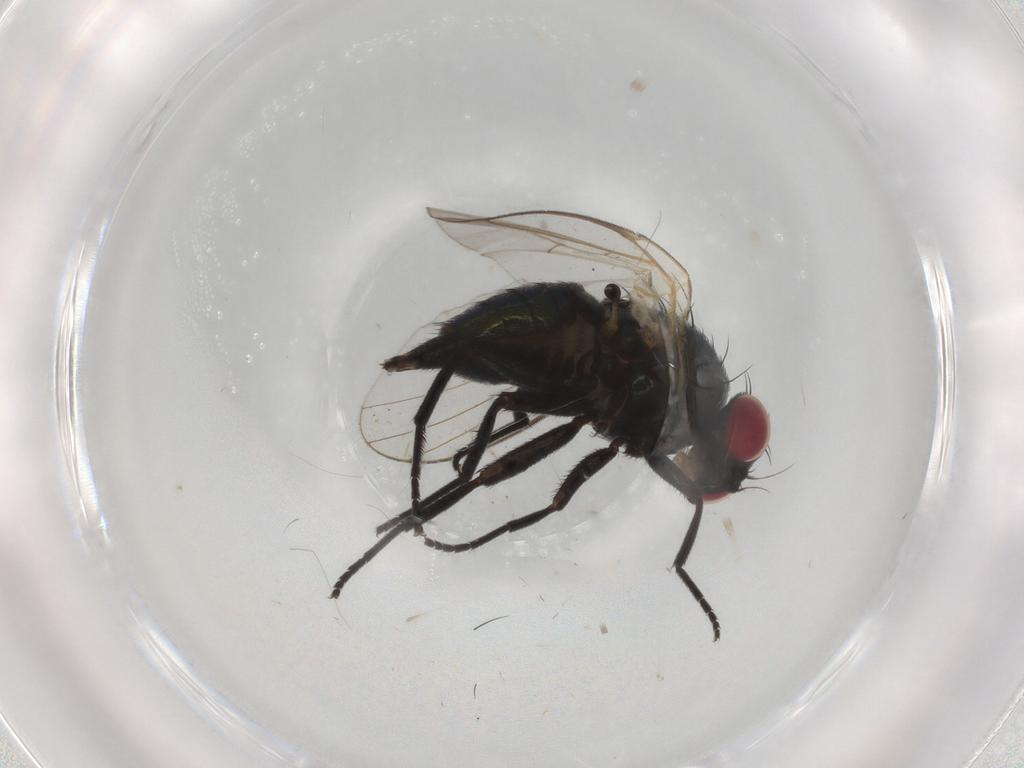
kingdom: Animalia
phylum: Arthropoda
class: Insecta
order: Diptera
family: Agromyzidae
